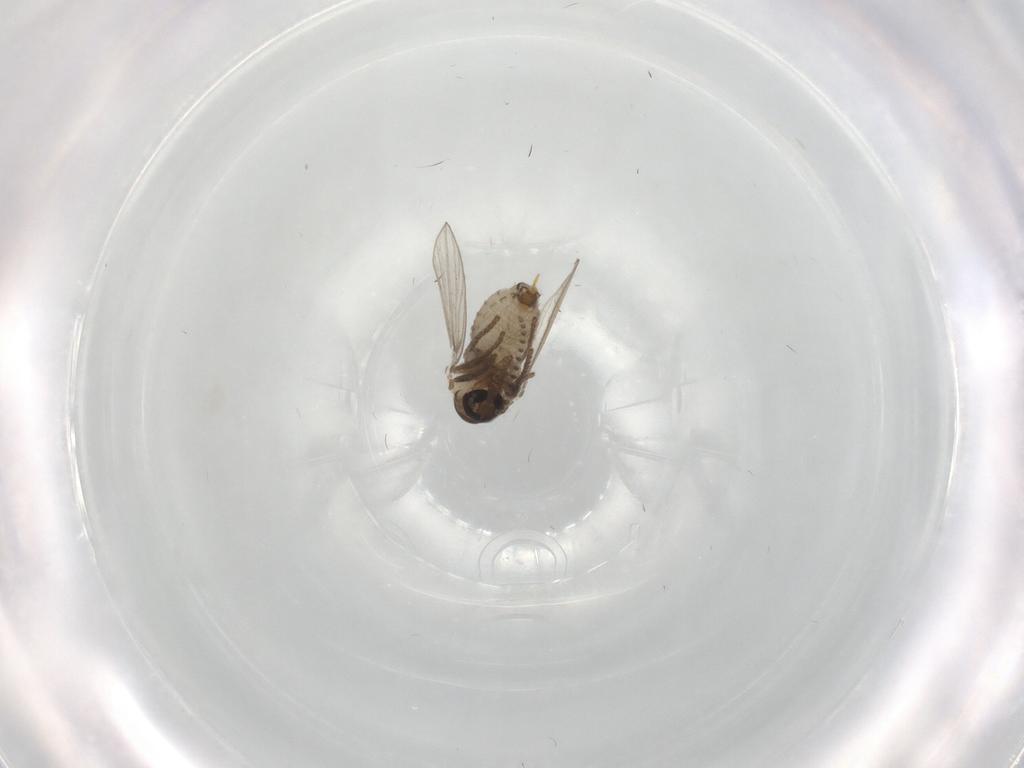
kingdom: Animalia
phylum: Arthropoda
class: Insecta
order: Diptera
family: Psychodidae
